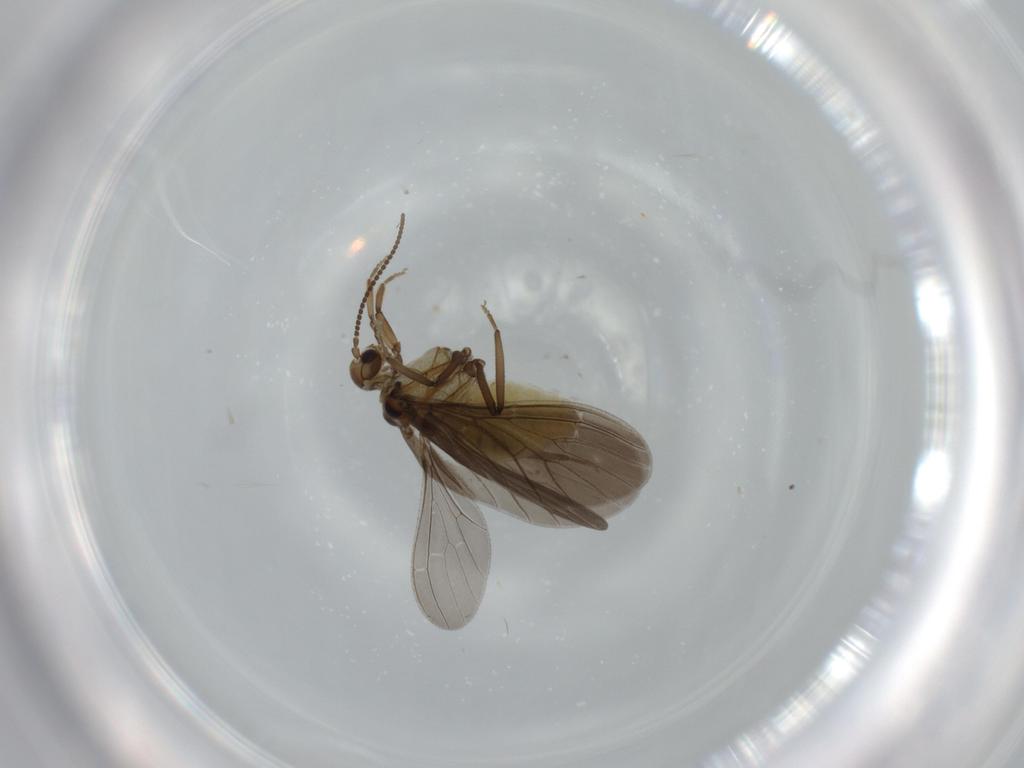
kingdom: Animalia
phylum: Arthropoda
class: Insecta
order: Neuroptera
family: Coniopterygidae
